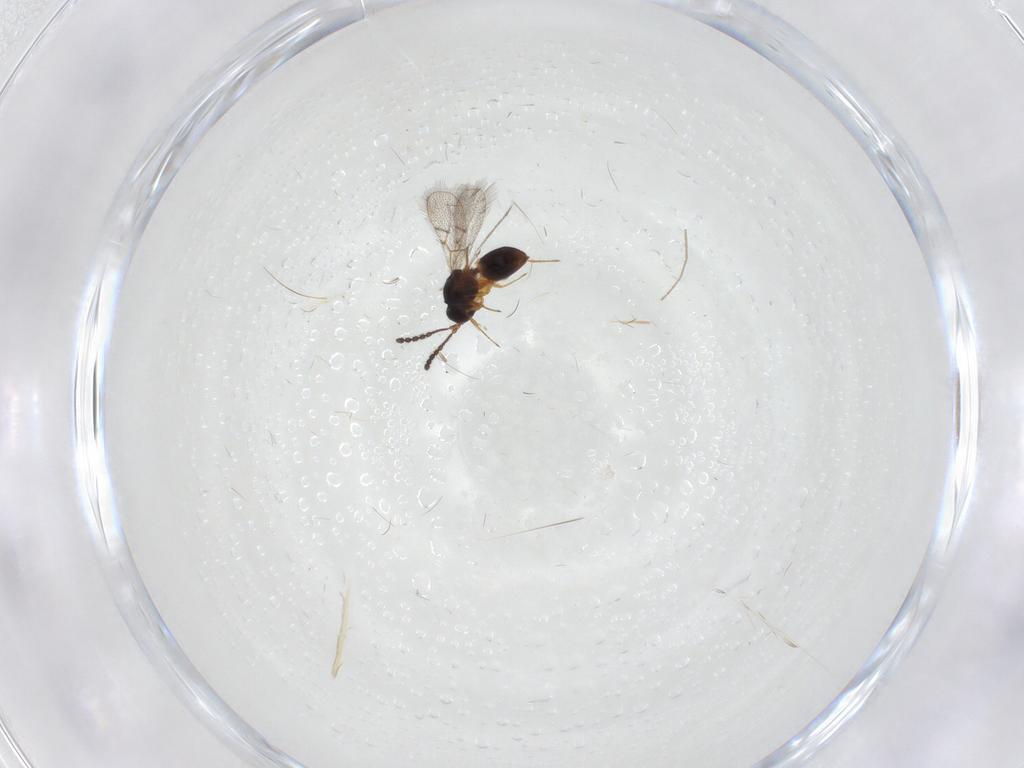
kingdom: Animalia
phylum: Arthropoda
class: Insecta
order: Hymenoptera
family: Figitidae
